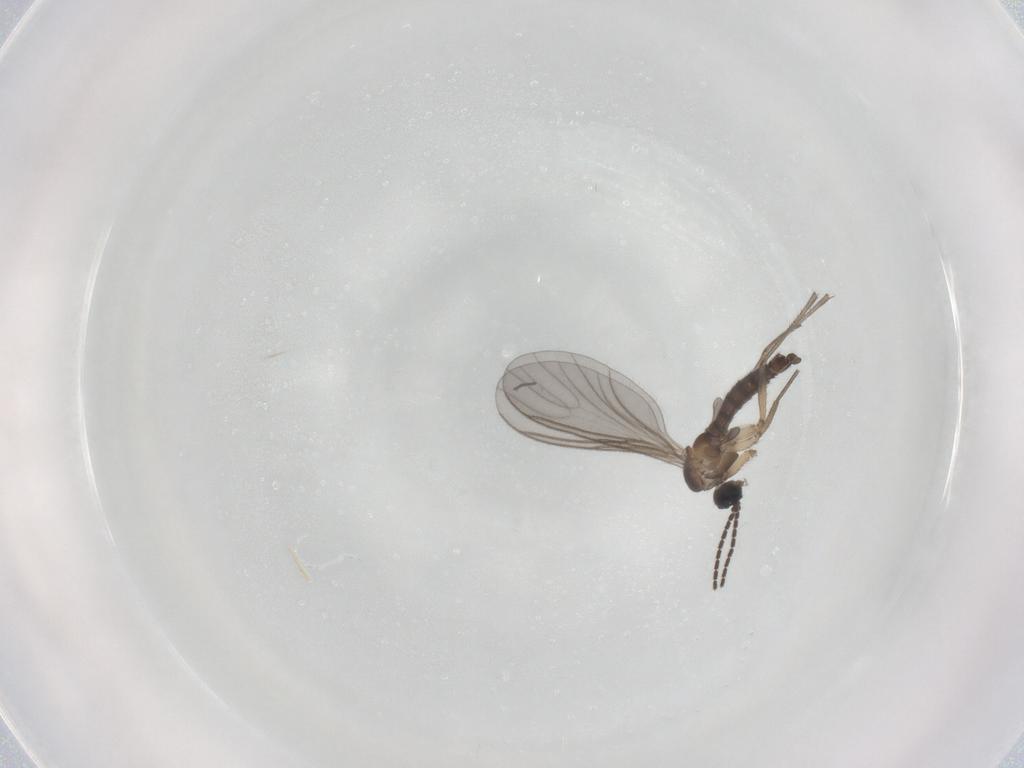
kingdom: Animalia
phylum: Arthropoda
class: Insecta
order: Diptera
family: Sciaridae
